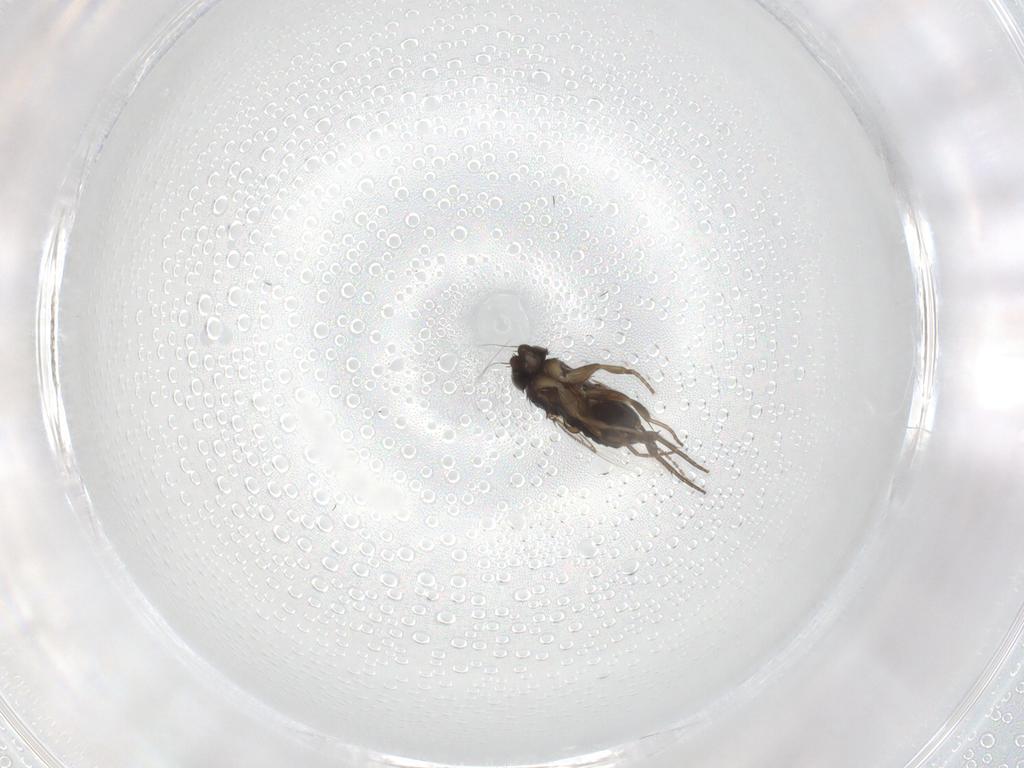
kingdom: Animalia
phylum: Arthropoda
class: Insecta
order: Diptera
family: Phoridae
